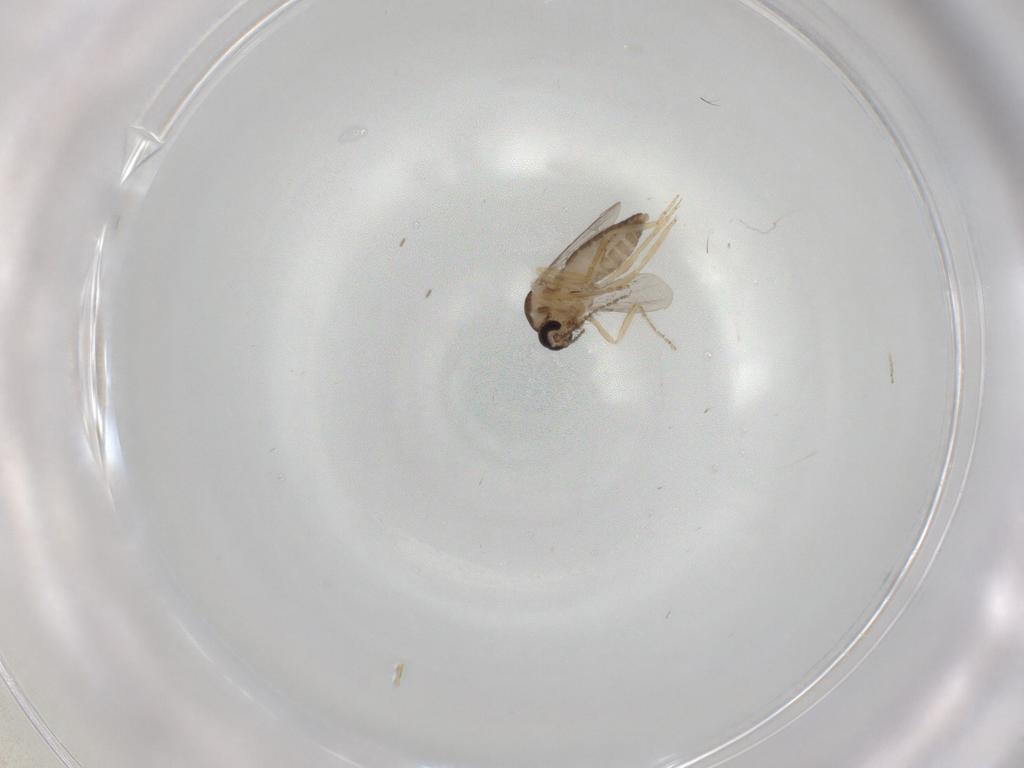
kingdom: Animalia
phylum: Arthropoda
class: Insecta
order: Diptera
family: Ceratopogonidae
